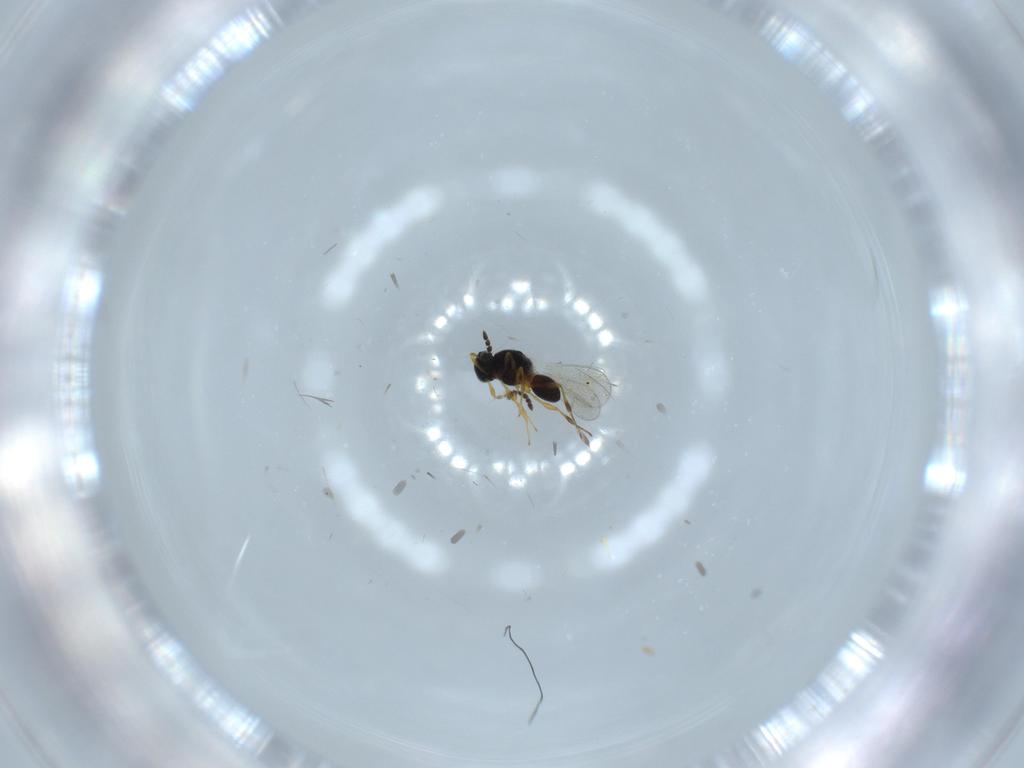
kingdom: Animalia
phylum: Arthropoda
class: Insecta
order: Hymenoptera
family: Platygastridae
